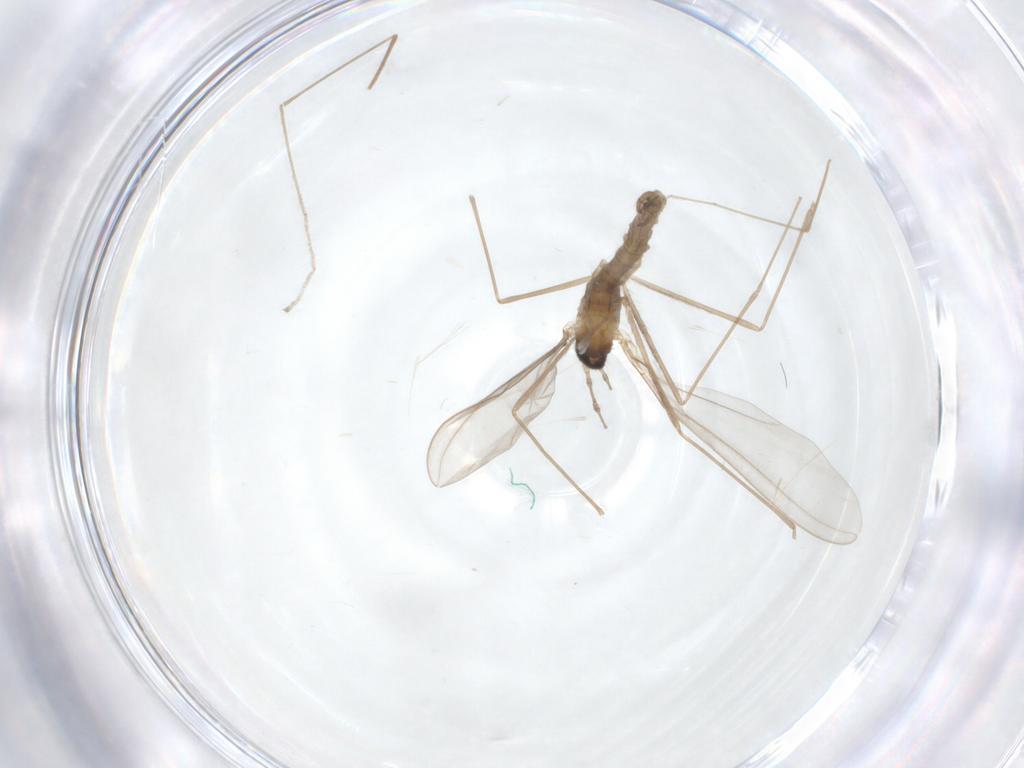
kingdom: Animalia
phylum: Arthropoda
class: Insecta
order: Diptera
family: Cecidomyiidae
